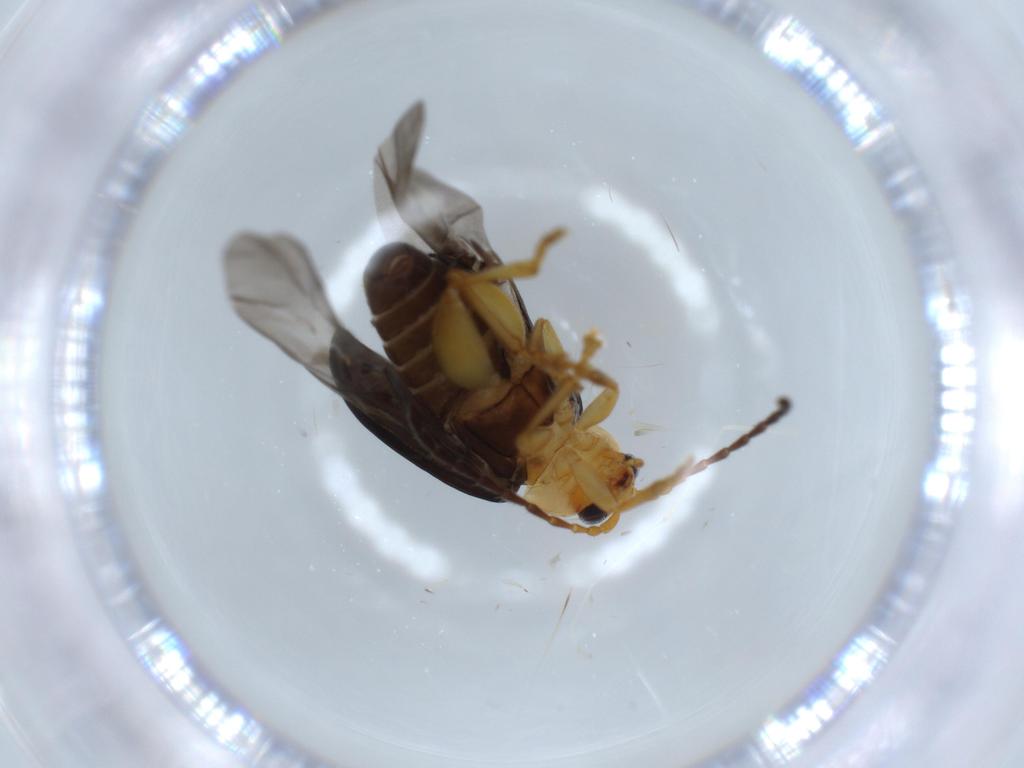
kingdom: Animalia
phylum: Arthropoda
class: Insecta
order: Coleoptera
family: Chrysomelidae
